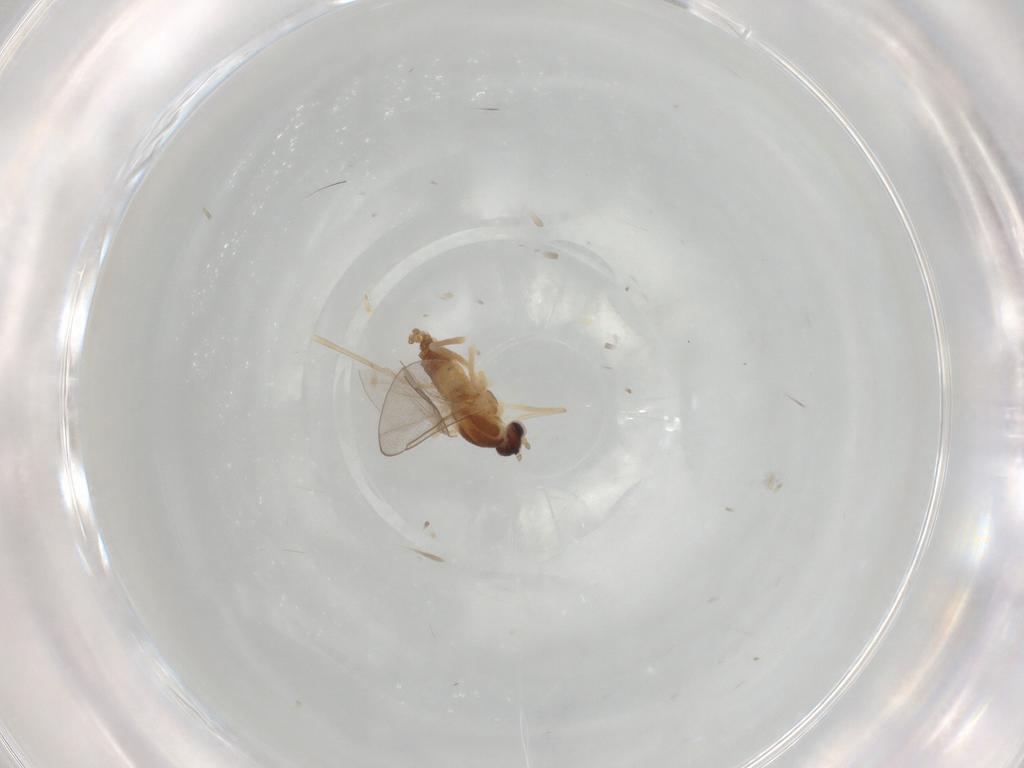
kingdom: Animalia
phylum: Arthropoda
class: Insecta
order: Diptera
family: Cecidomyiidae
